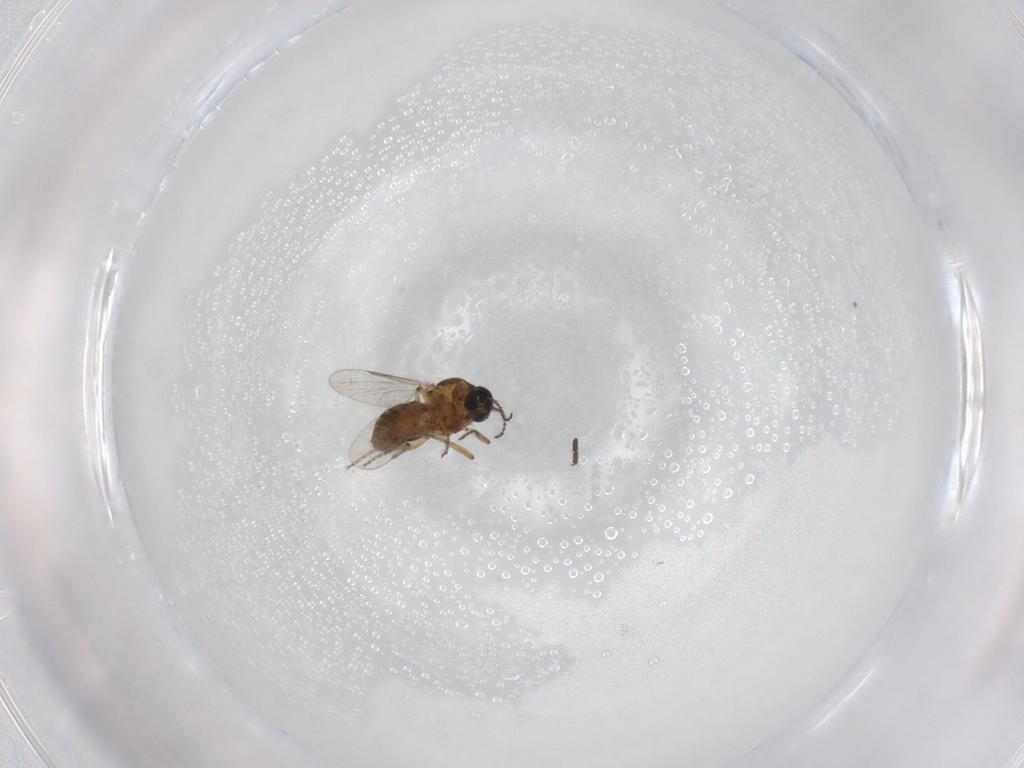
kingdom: Animalia
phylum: Arthropoda
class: Insecta
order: Diptera
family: Ceratopogonidae
